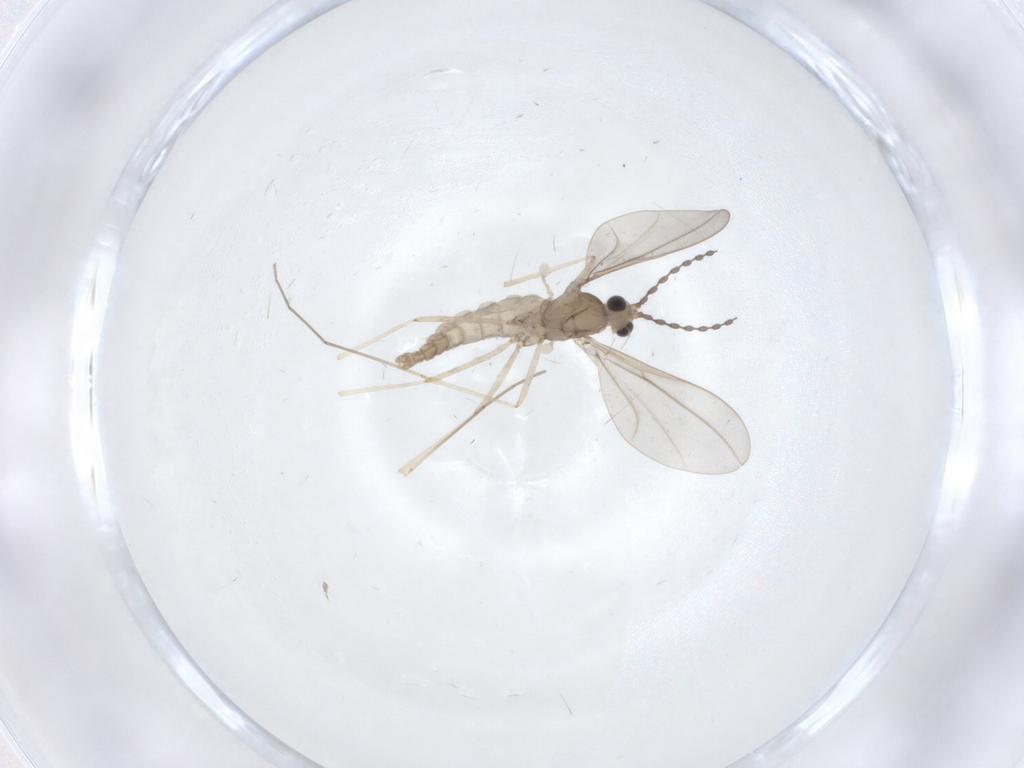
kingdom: Animalia
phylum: Arthropoda
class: Insecta
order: Diptera
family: Cecidomyiidae
